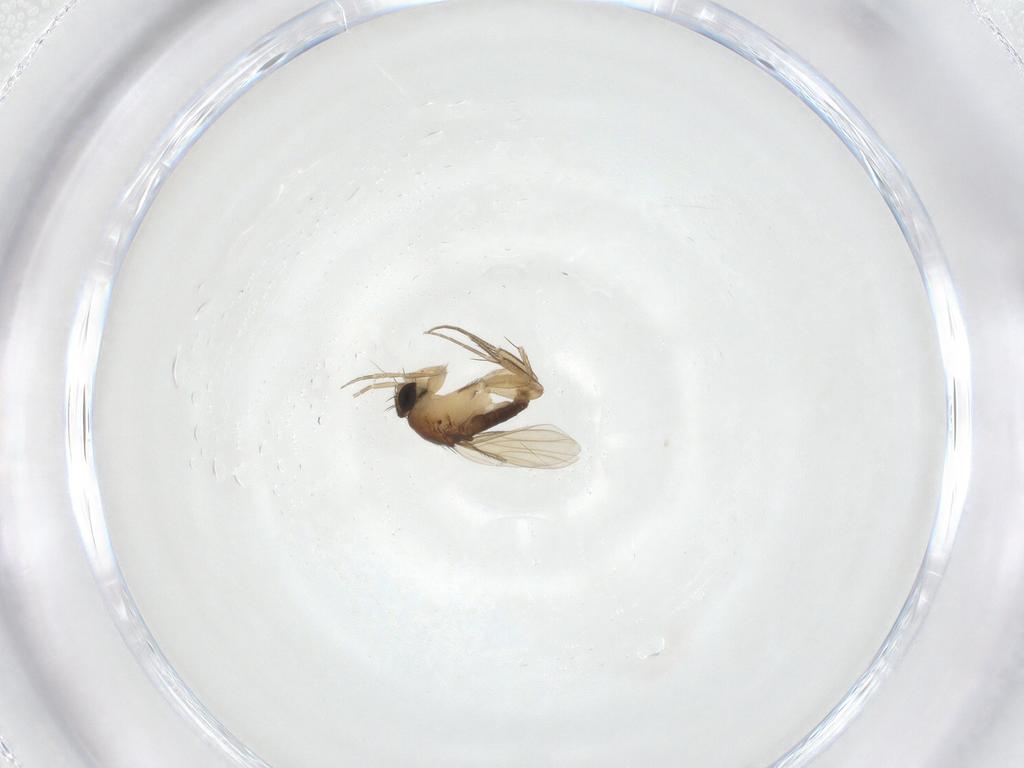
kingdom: Animalia
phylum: Arthropoda
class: Insecta
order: Diptera
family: Phoridae
